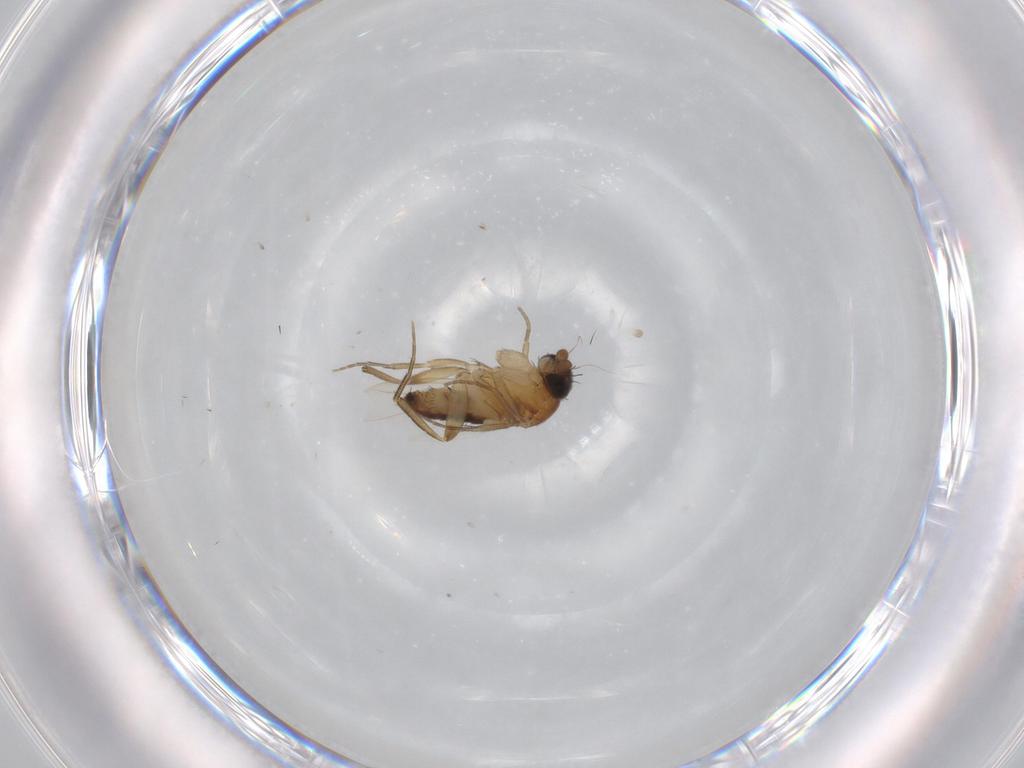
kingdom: Animalia
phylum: Arthropoda
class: Insecta
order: Diptera
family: Phoridae
